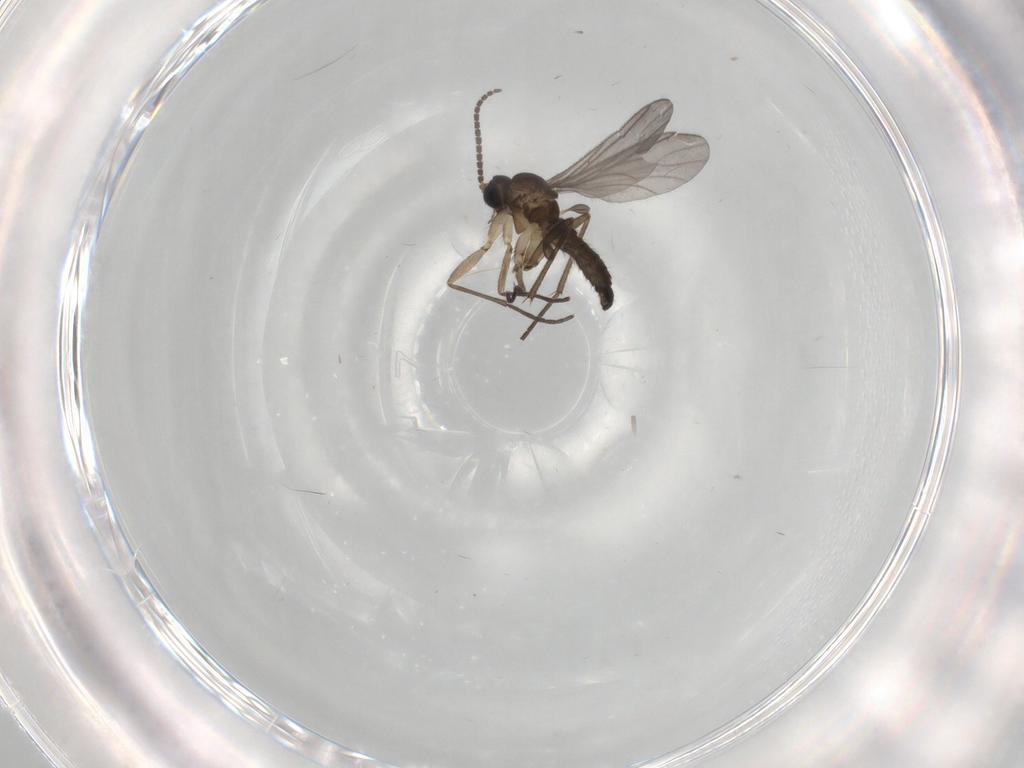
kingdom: Animalia
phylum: Arthropoda
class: Insecta
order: Diptera
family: Sciaridae
